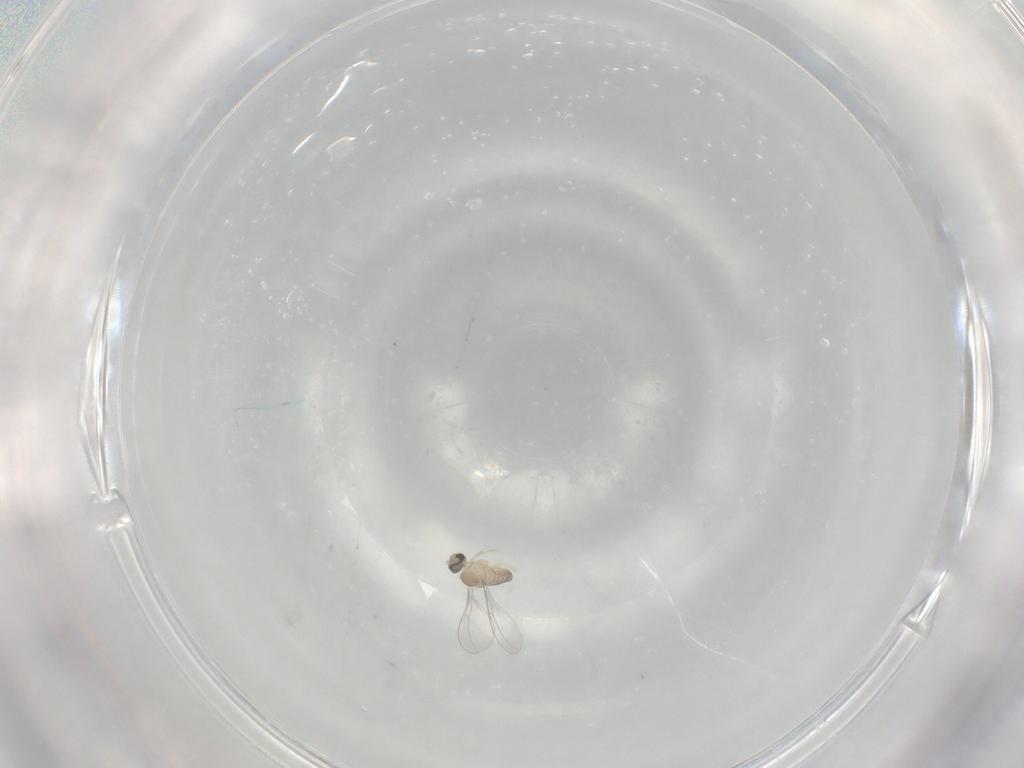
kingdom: Animalia
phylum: Arthropoda
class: Insecta
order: Diptera
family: Cecidomyiidae
